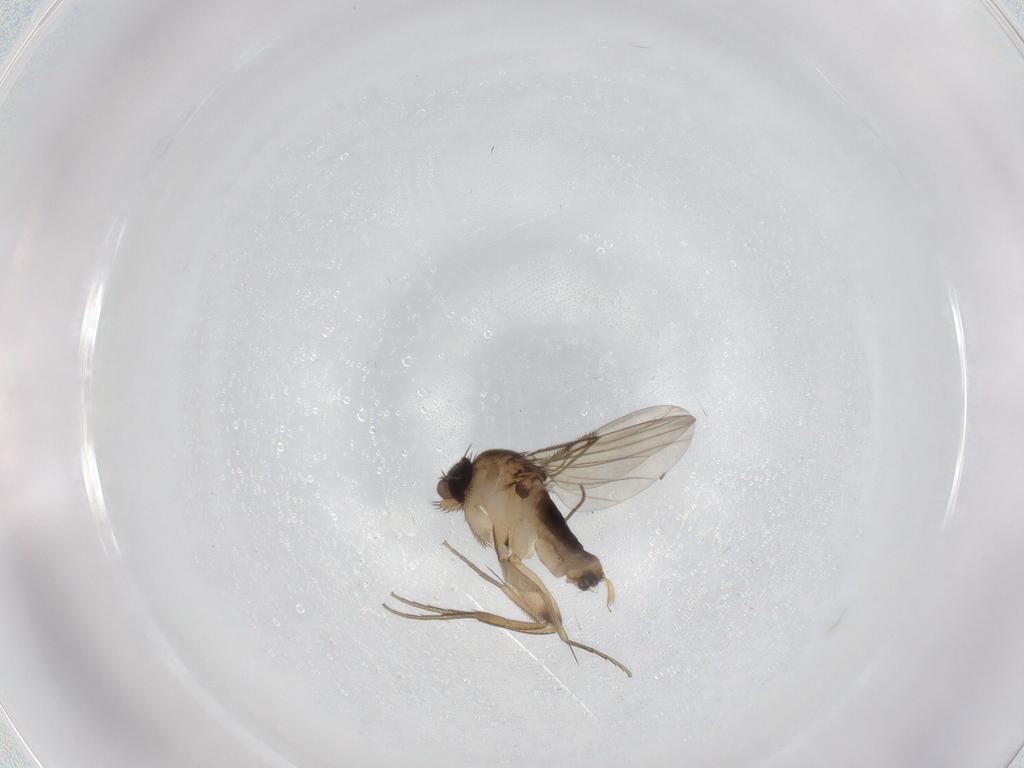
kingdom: Animalia
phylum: Arthropoda
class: Insecta
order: Diptera
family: Phoridae
